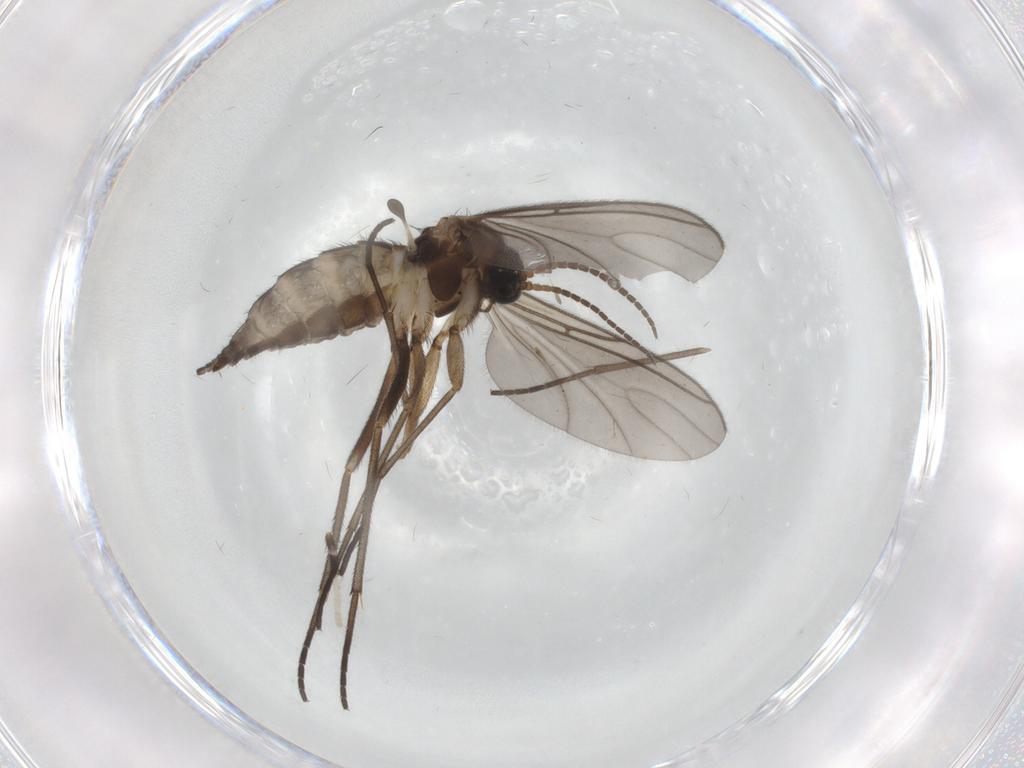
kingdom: Animalia
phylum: Arthropoda
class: Insecta
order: Diptera
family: Sciaridae
